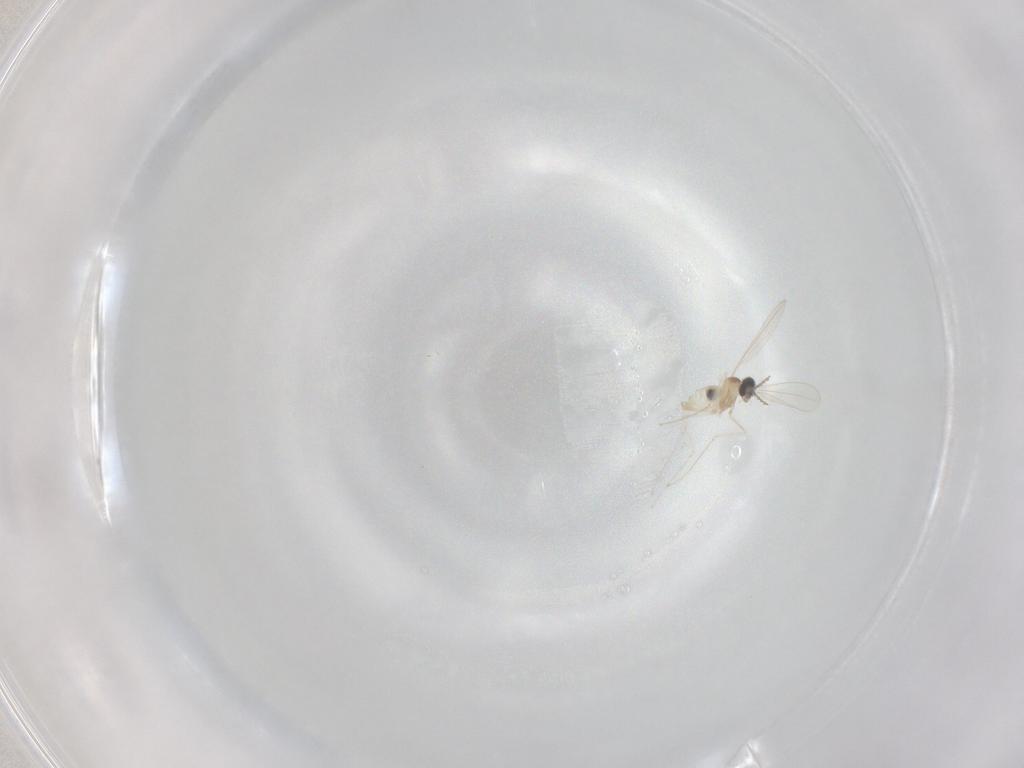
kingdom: Animalia
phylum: Arthropoda
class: Insecta
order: Diptera
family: Cecidomyiidae
